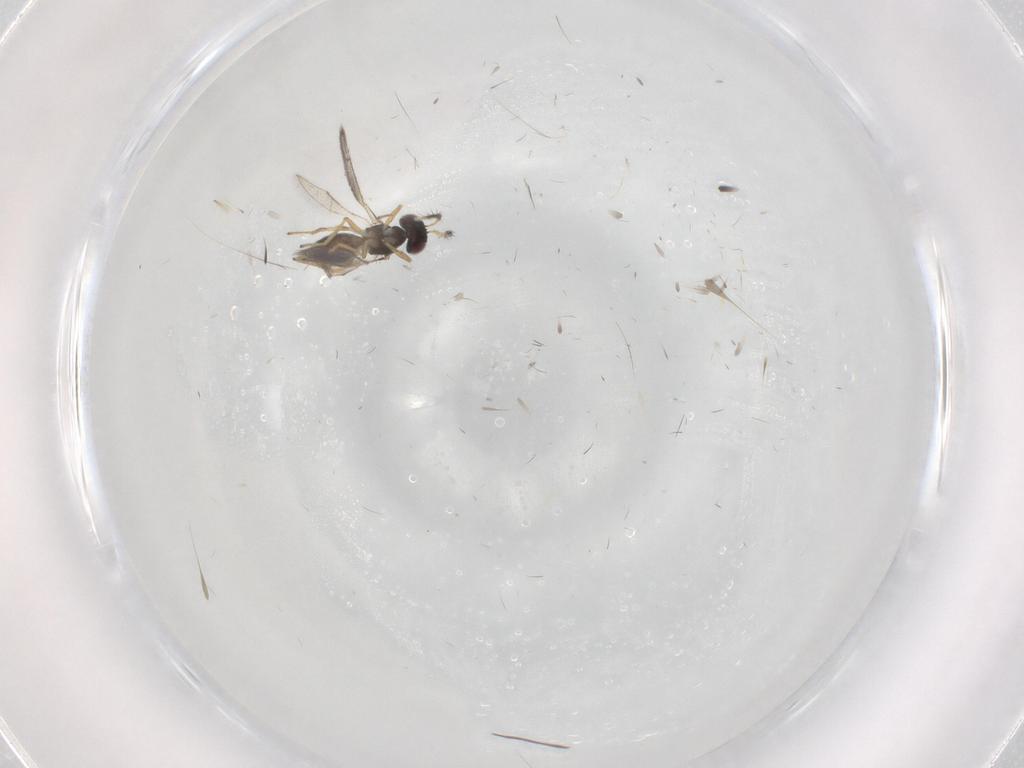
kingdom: Animalia
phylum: Arthropoda
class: Insecta
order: Hymenoptera
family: Eulophidae
